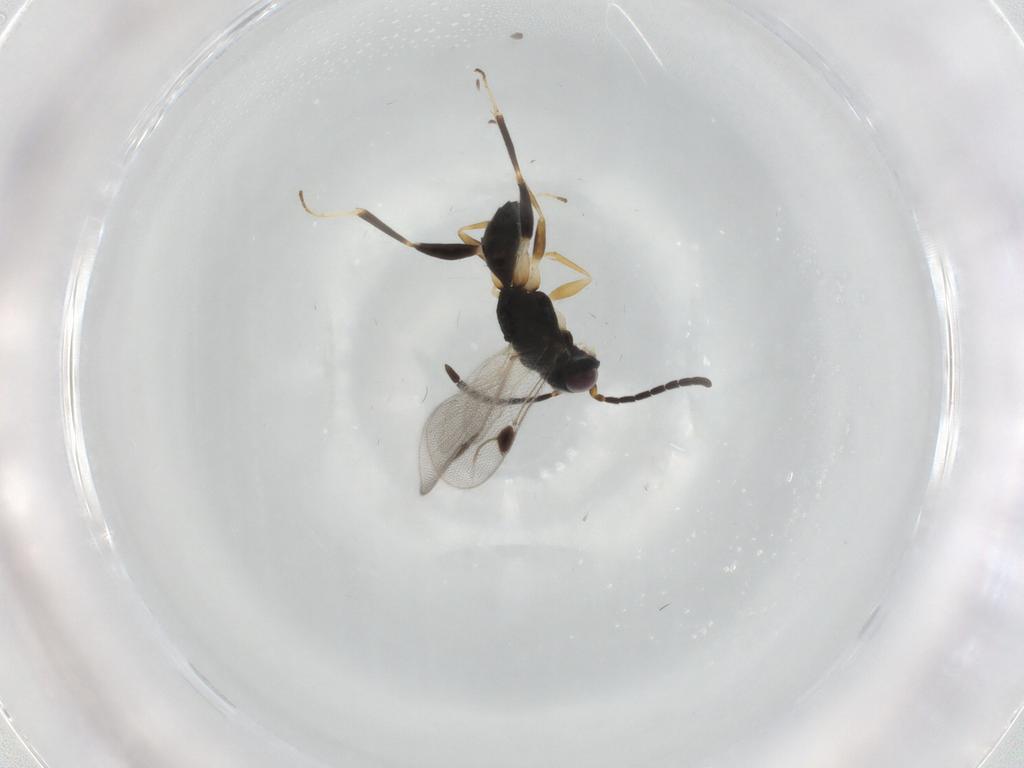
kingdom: Animalia
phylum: Arthropoda
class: Insecta
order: Hymenoptera
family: Dryinidae
